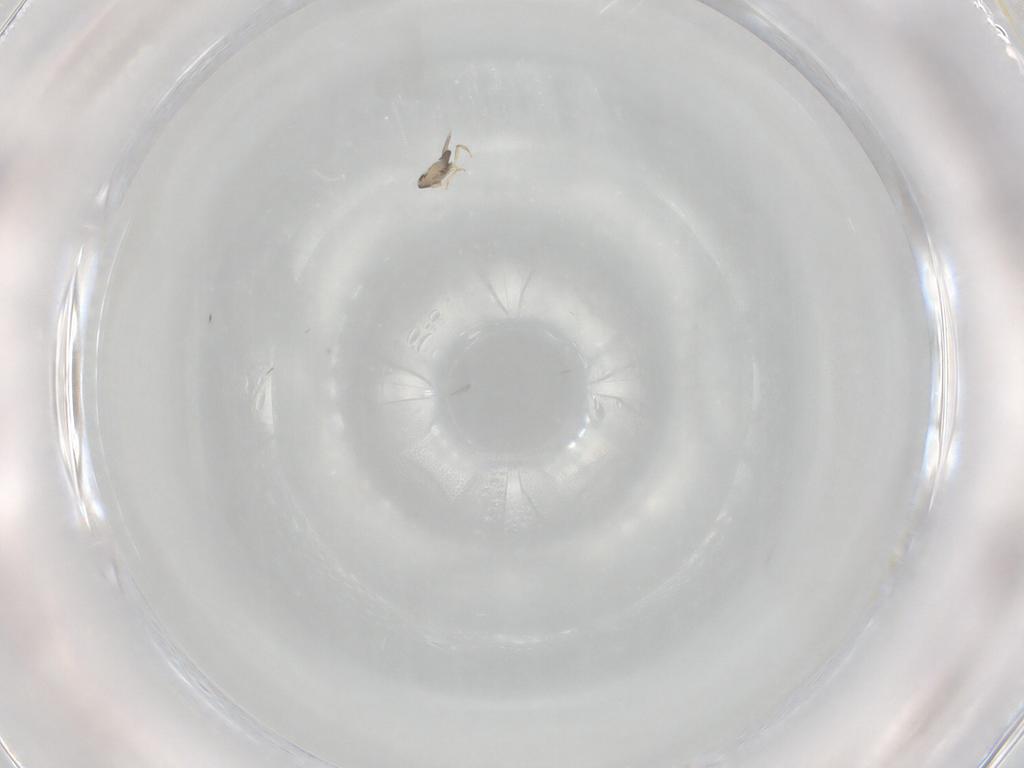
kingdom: Animalia
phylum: Arthropoda
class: Insecta
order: Hymenoptera
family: Aphelinidae
